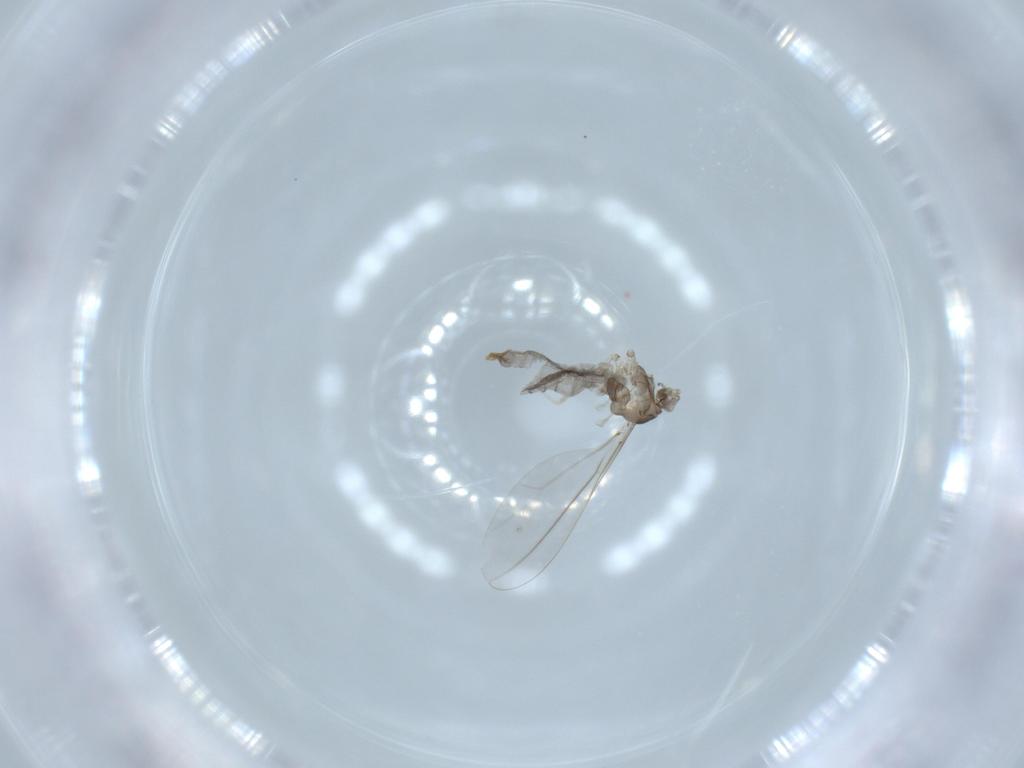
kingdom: Animalia
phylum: Arthropoda
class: Insecta
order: Diptera
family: Cecidomyiidae
